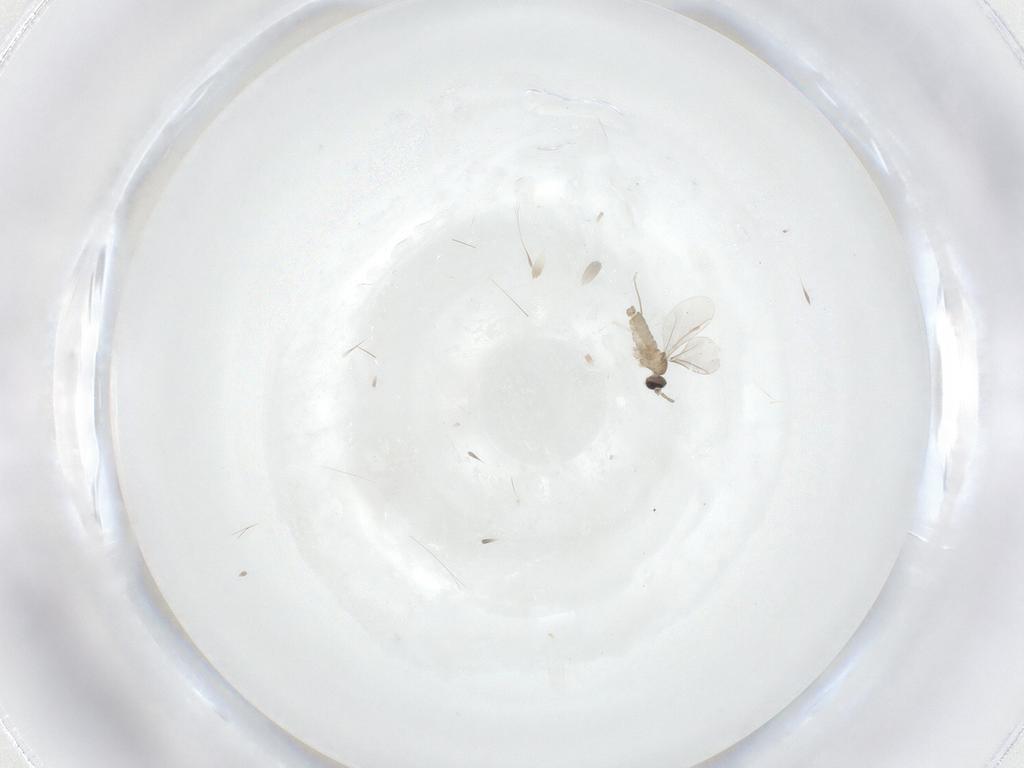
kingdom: Animalia
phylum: Arthropoda
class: Insecta
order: Diptera
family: Cecidomyiidae
